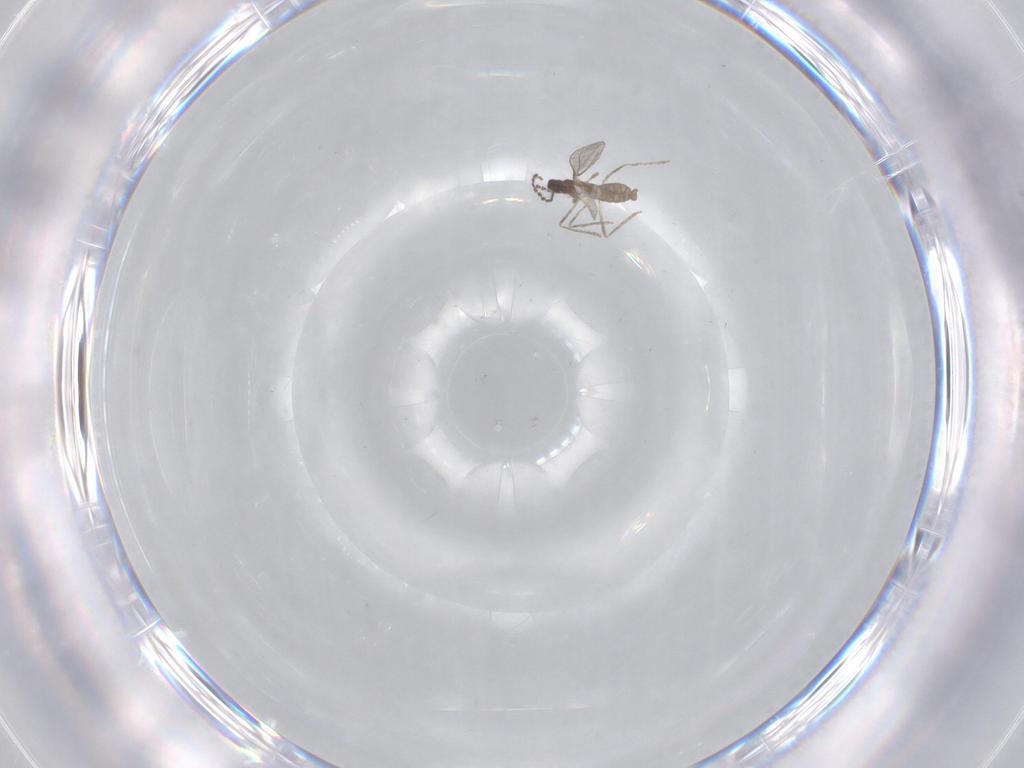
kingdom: Animalia
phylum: Arthropoda
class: Insecta
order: Diptera
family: Cecidomyiidae
